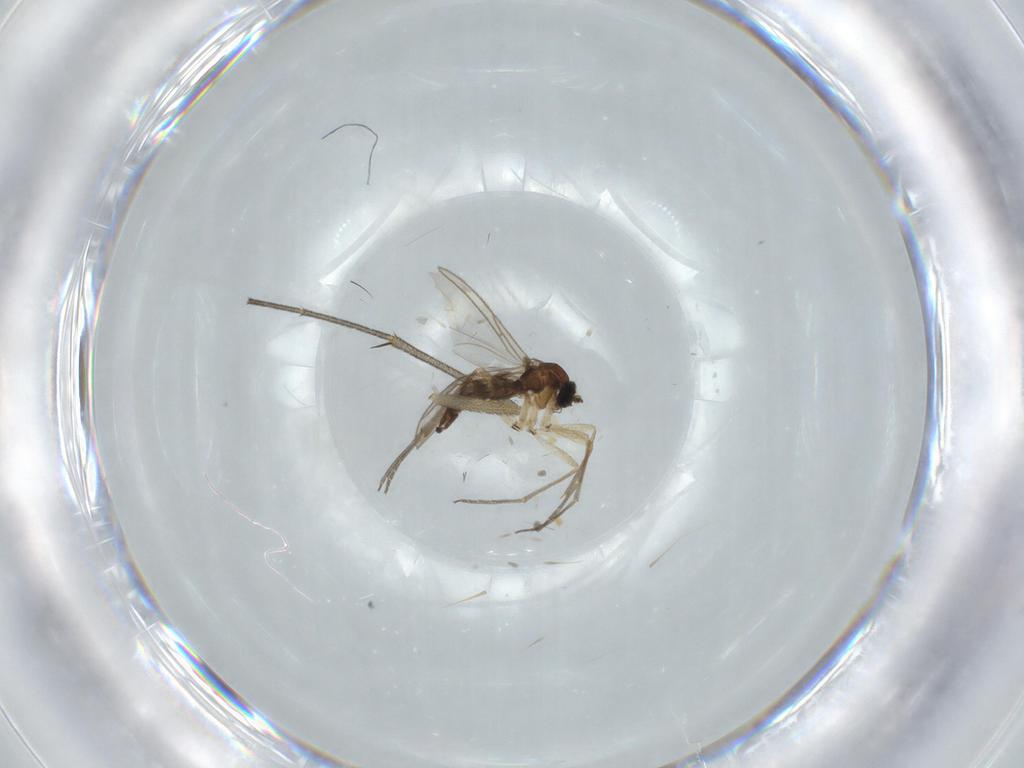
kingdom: Animalia
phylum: Arthropoda
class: Insecta
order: Diptera
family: Sciaridae
